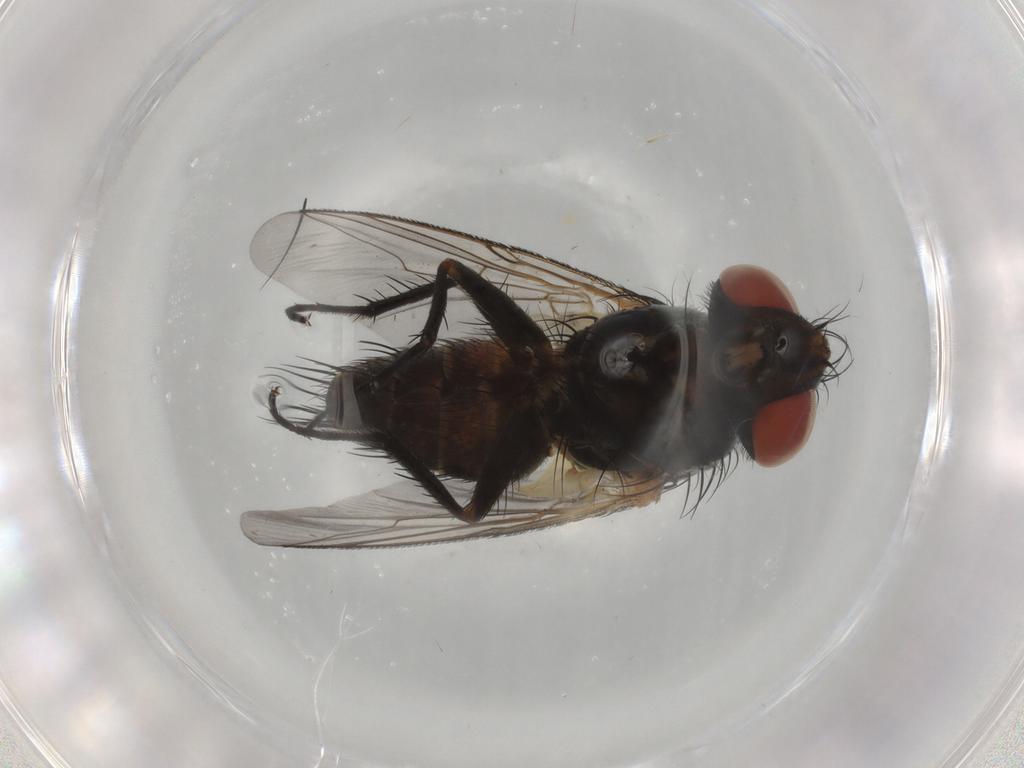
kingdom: Animalia
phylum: Arthropoda
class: Insecta
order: Diptera
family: Sarcophagidae
